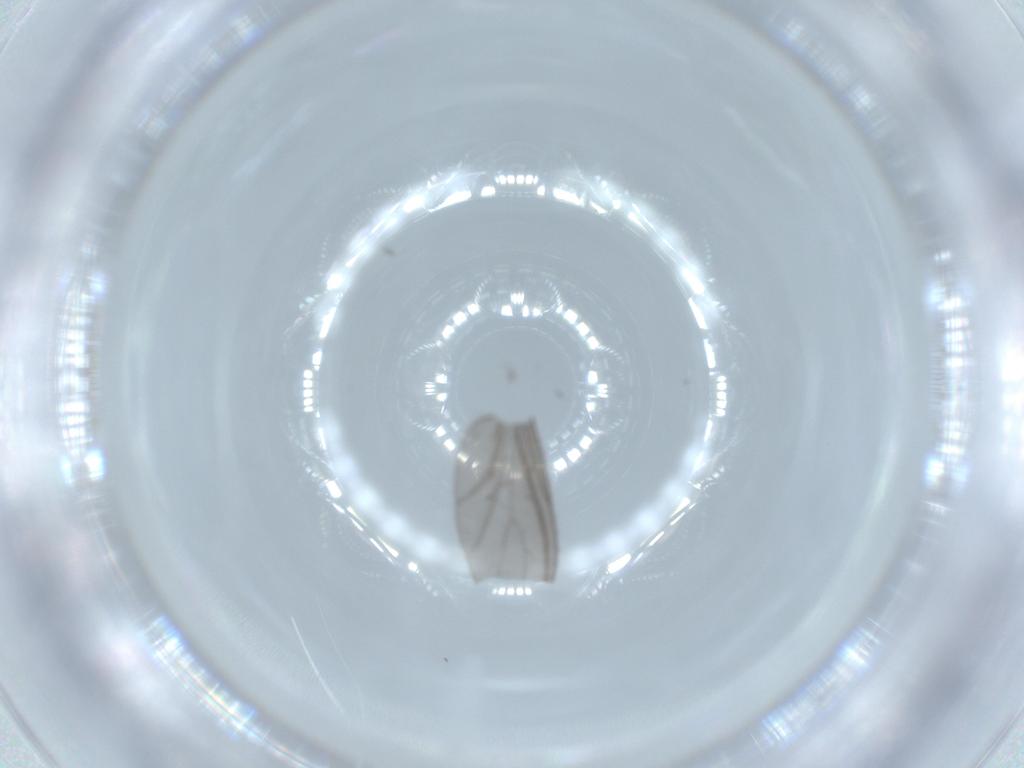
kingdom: Animalia
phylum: Arthropoda
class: Insecta
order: Diptera
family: Sciaridae
